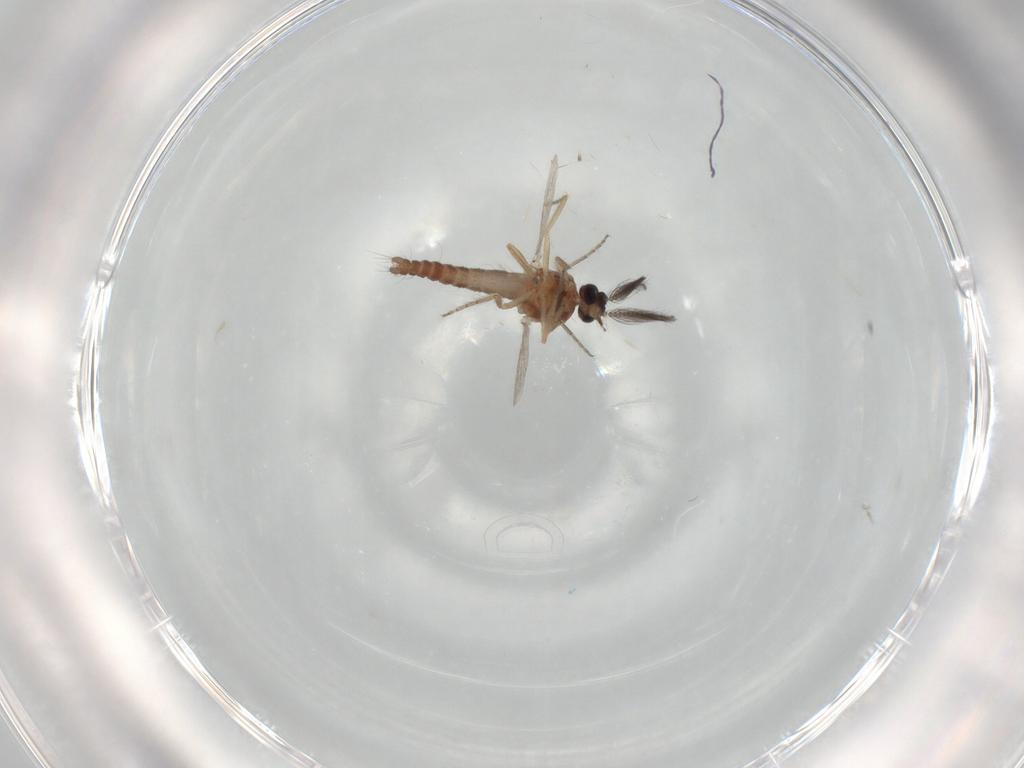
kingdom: Animalia
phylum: Arthropoda
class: Insecta
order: Diptera
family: Ceratopogonidae
